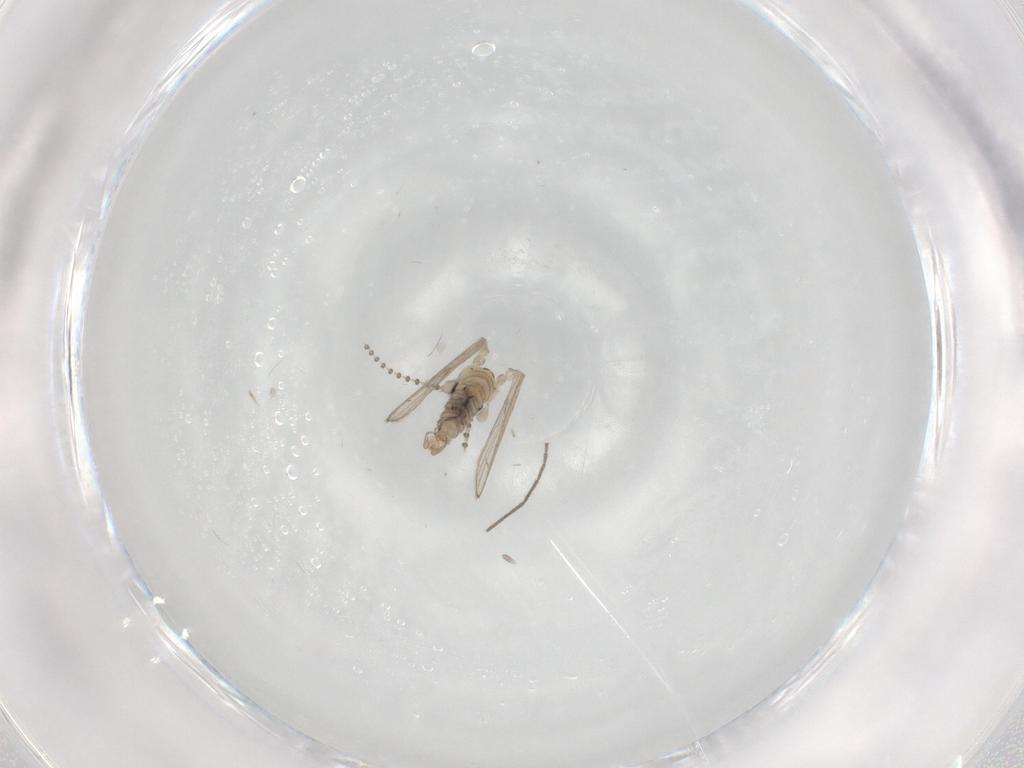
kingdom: Animalia
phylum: Arthropoda
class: Insecta
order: Diptera
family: Psychodidae
